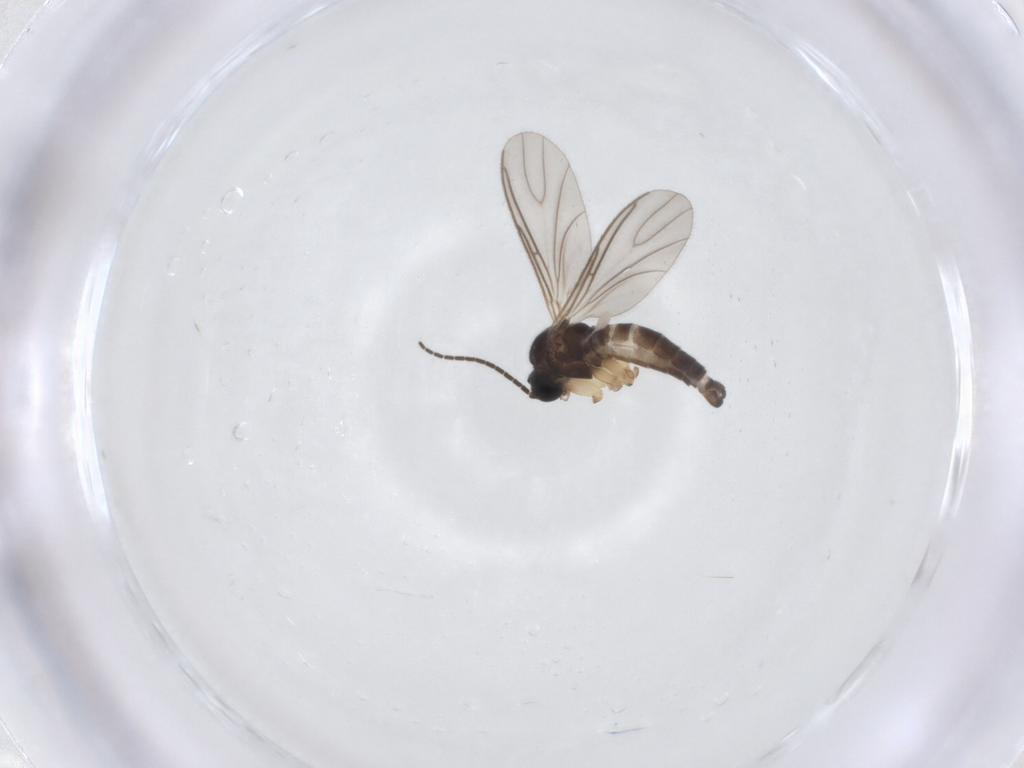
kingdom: Animalia
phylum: Arthropoda
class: Insecta
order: Diptera
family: Sciaridae
